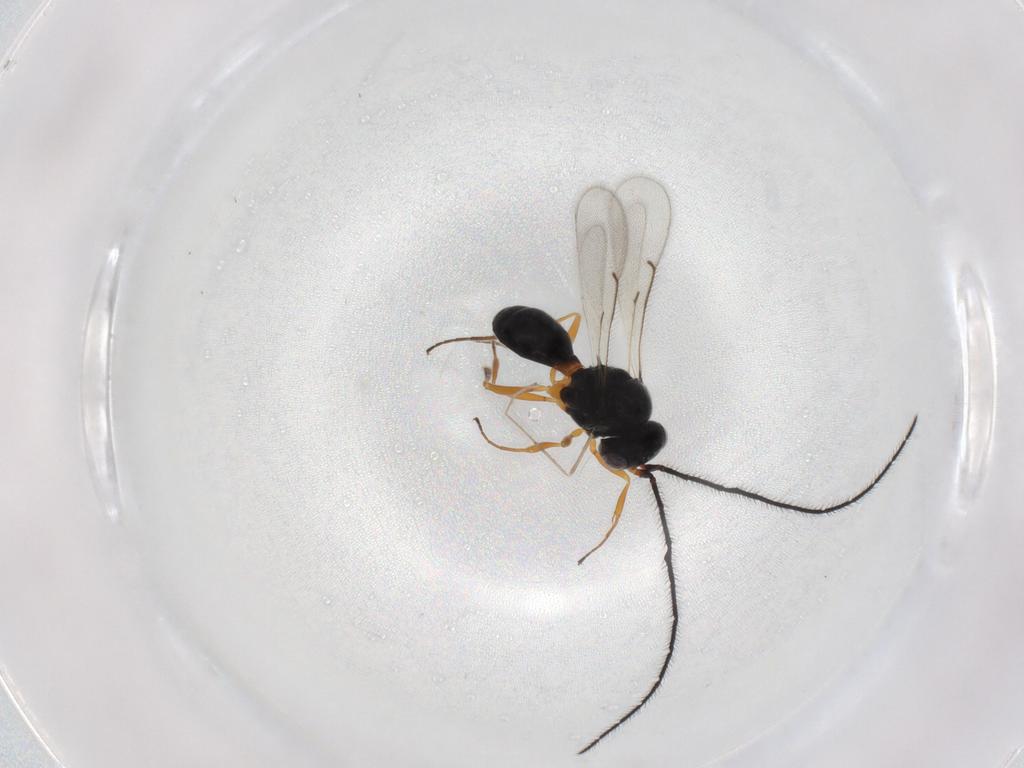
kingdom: Animalia
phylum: Arthropoda
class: Insecta
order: Hymenoptera
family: Scelionidae
